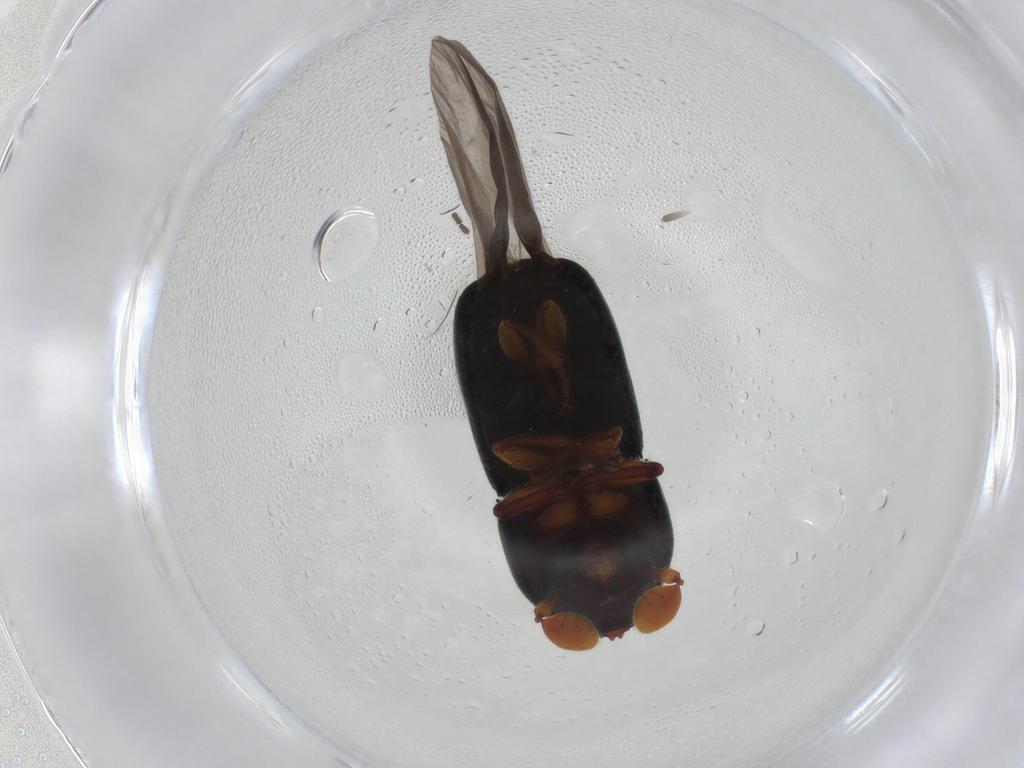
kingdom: Animalia
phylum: Arthropoda
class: Insecta
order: Coleoptera
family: Curculionidae
